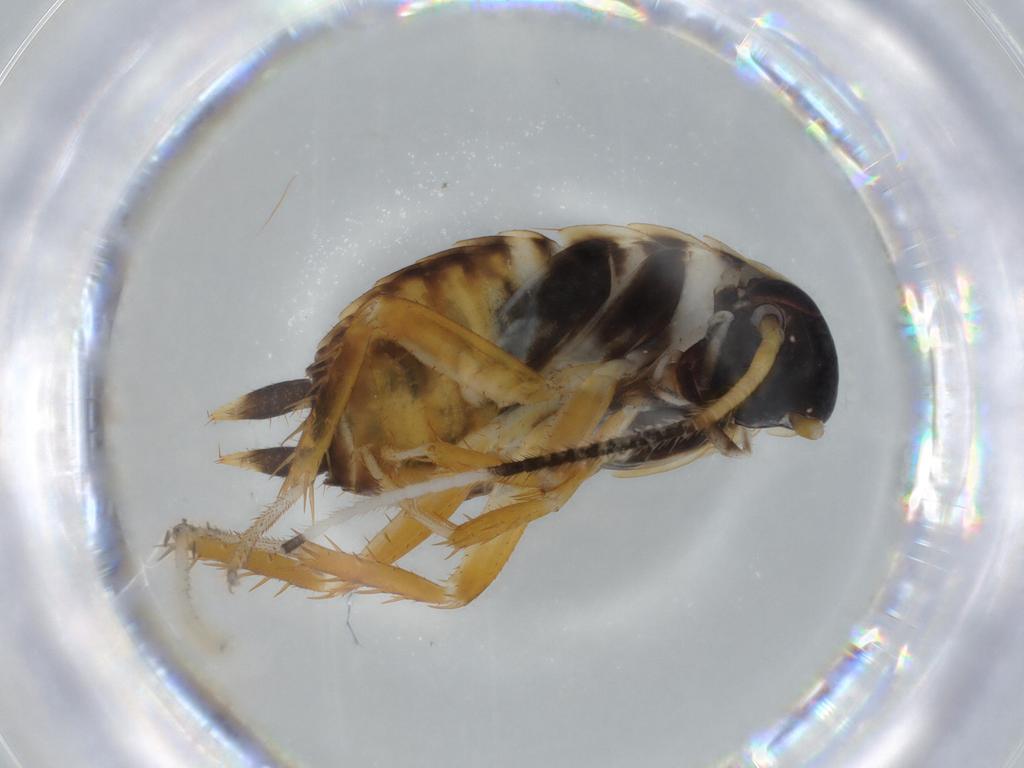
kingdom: Animalia
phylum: Arthropoda
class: Insecta
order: Blattodea
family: Ectobiidae
